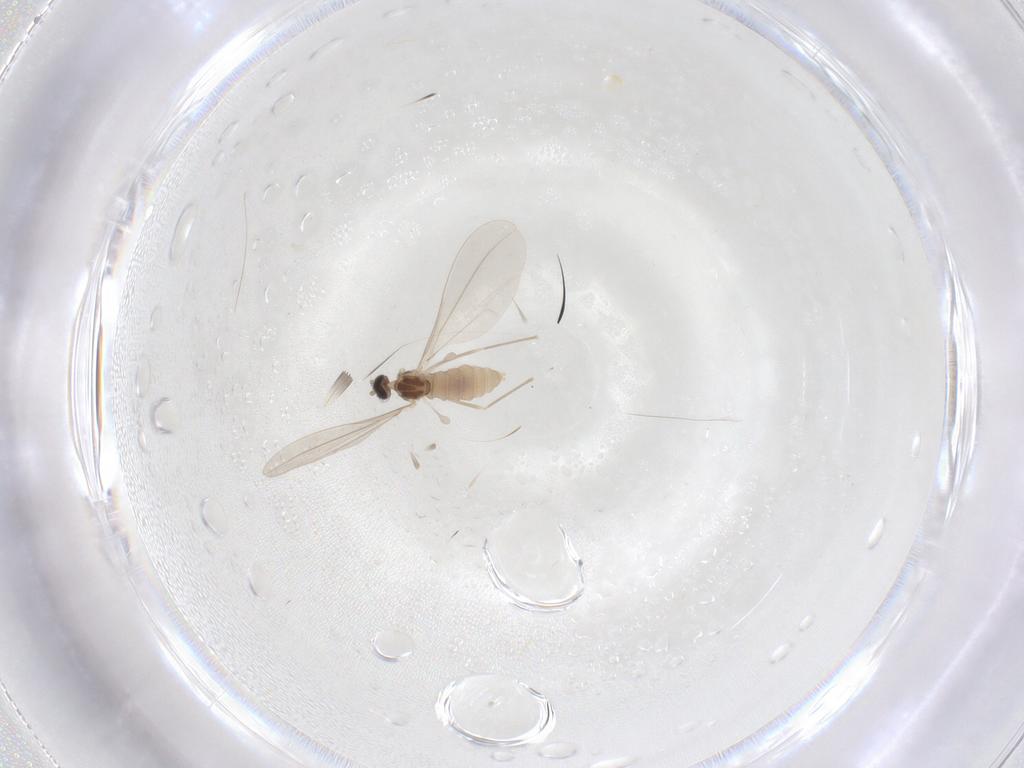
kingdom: Animalia
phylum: Arthropoda
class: Insecta
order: Diptera
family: Cecidomyiidae
